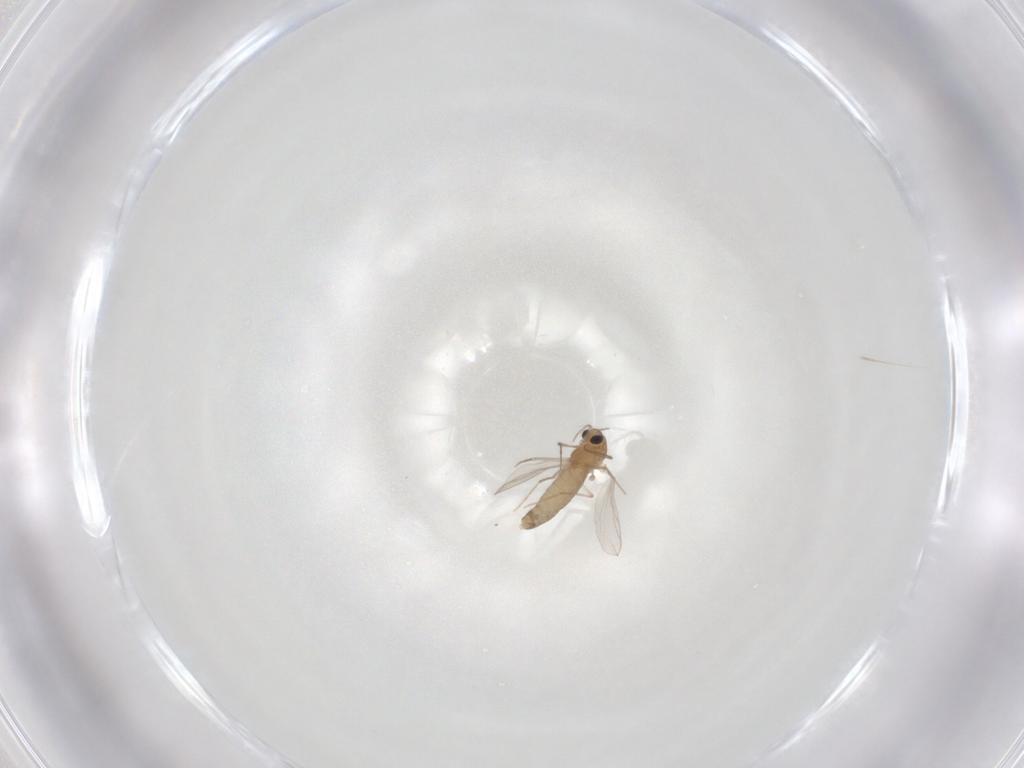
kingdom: Animalia
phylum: Arthropoda
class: Insecta
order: Diptera
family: Chironomidae
